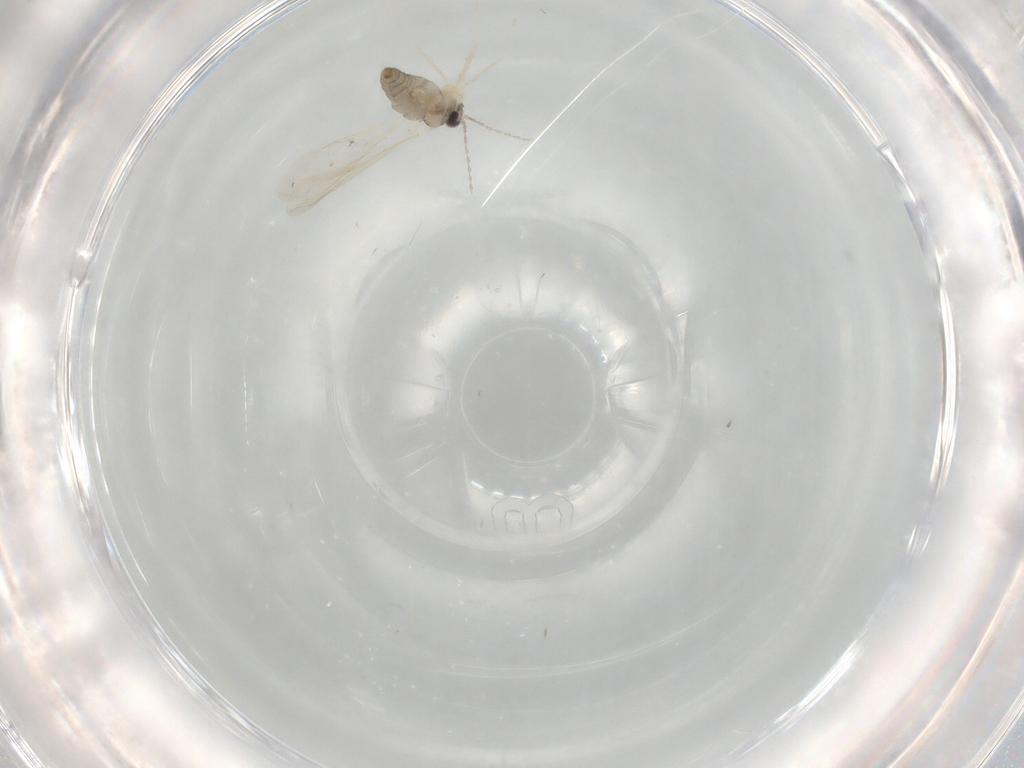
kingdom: Animalia
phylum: Arthropoda
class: Insecta
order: Diptera
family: Cecidomyiidae
